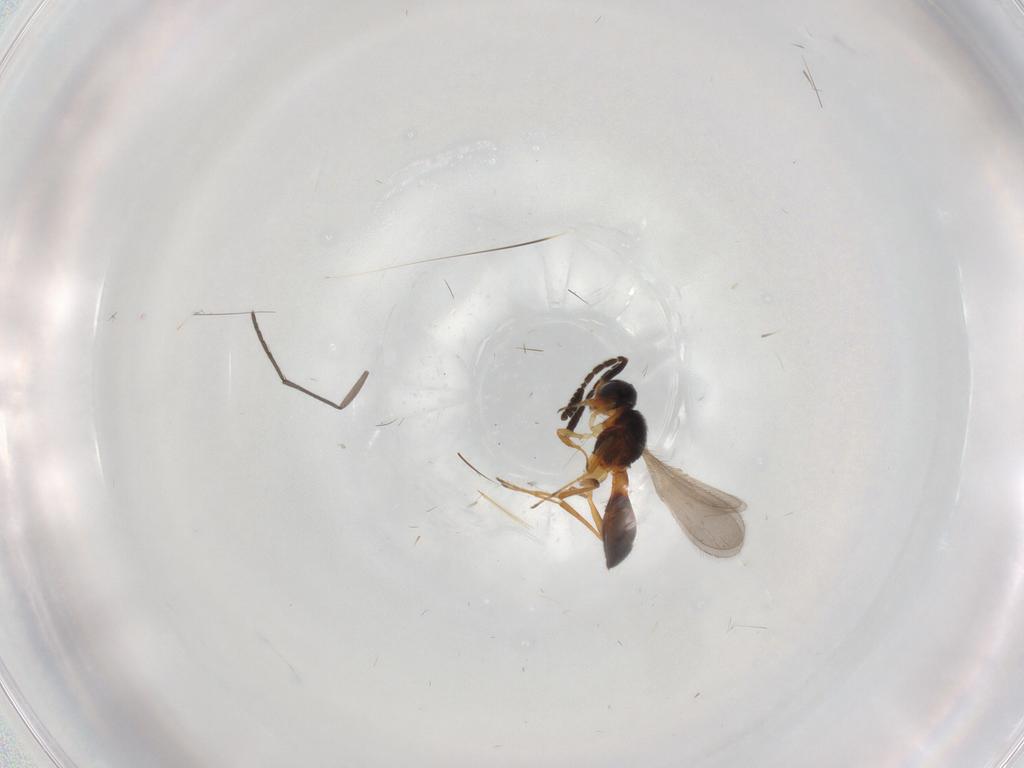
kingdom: Animalia
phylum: Arthropoda
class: Insecta
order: Hymenoptera
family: Scelionidae
